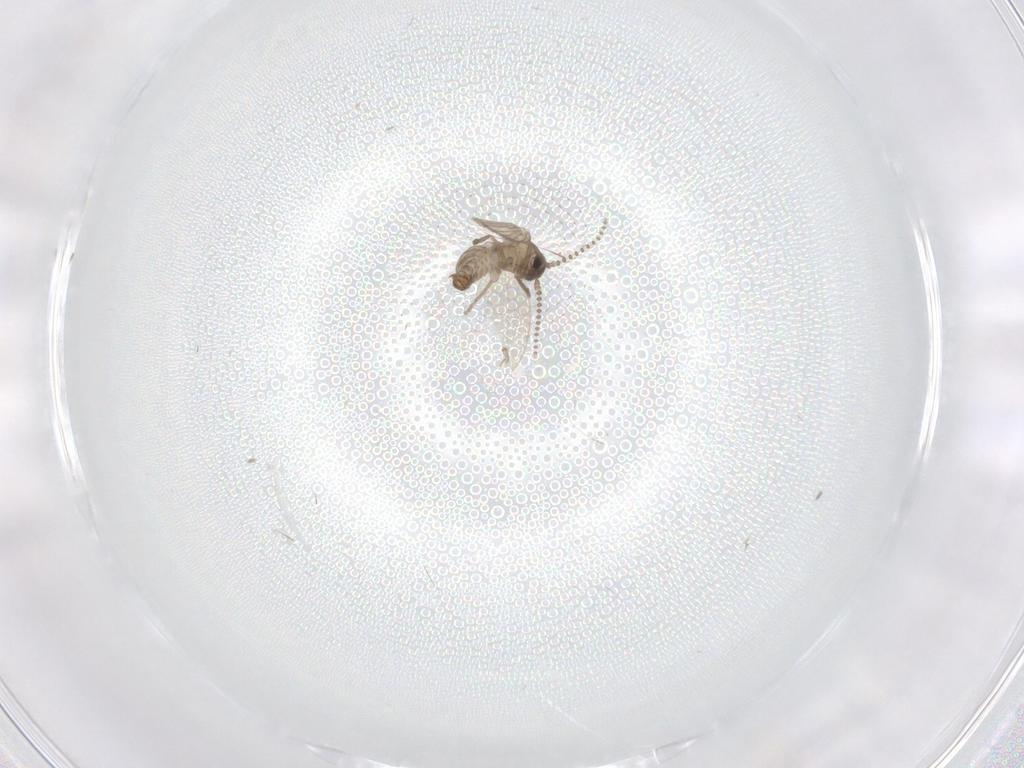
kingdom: Animalia
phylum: Arthropoda
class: Insecta
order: Diptera
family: Psychodidae
